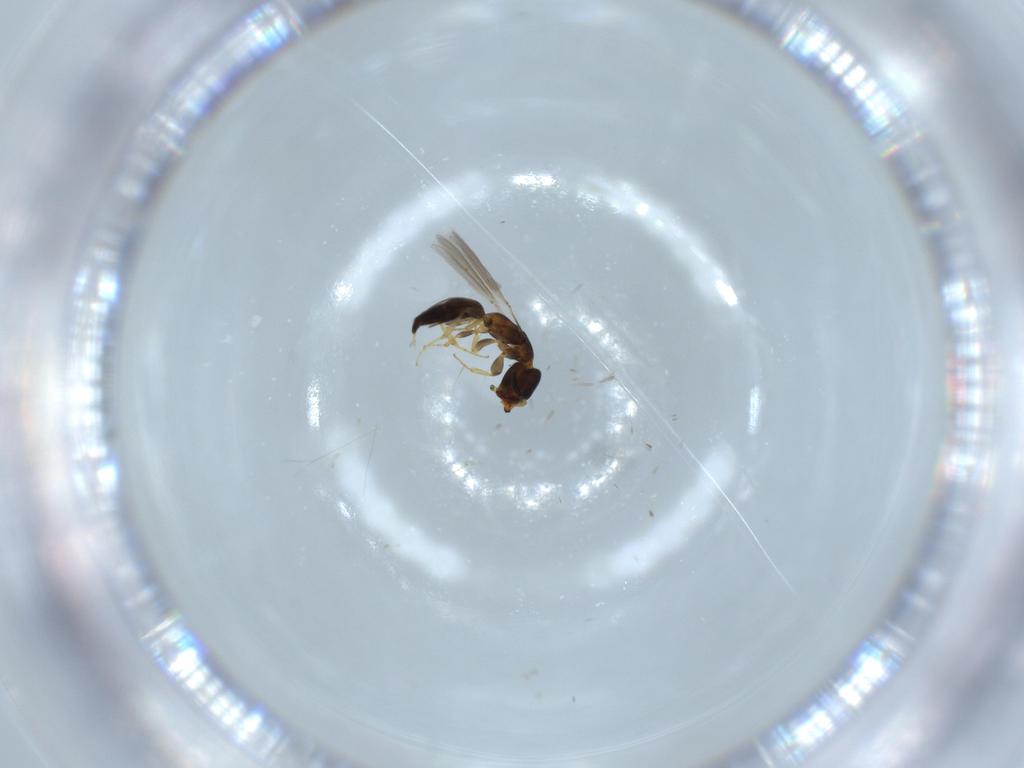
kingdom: Animalia
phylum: Arthropoda
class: Insecta
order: Hymenoptera
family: Bethylidae
